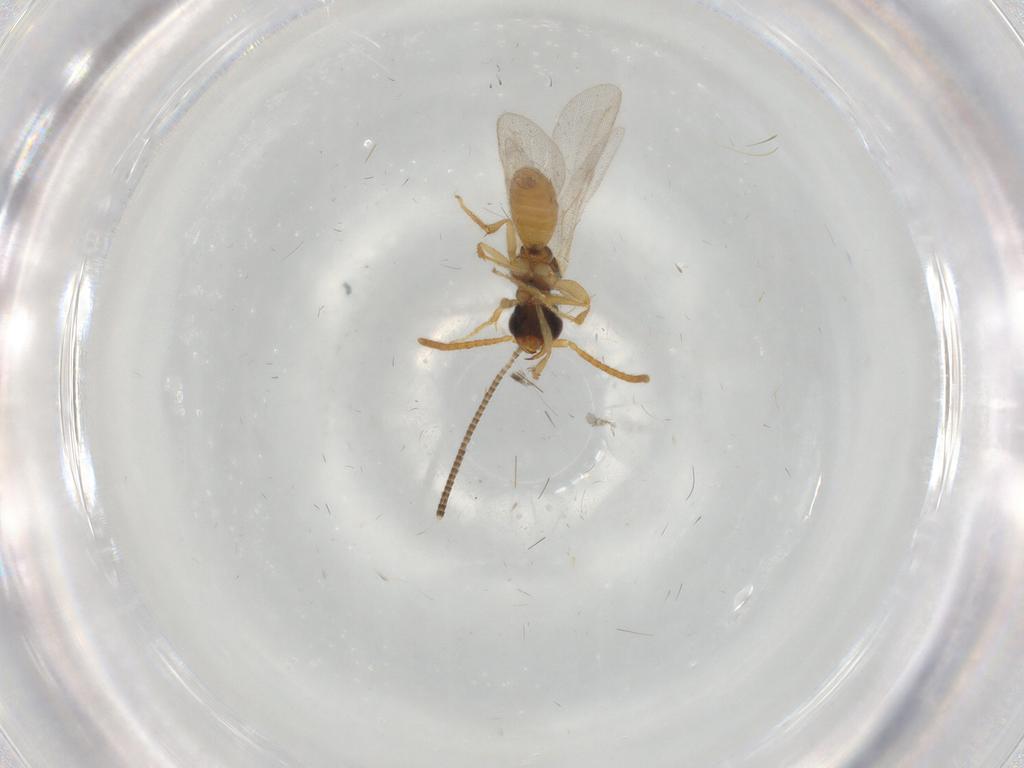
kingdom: Animalia
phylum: Arthropoda
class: Insecta
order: Hymenoptera
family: Bethylidae
